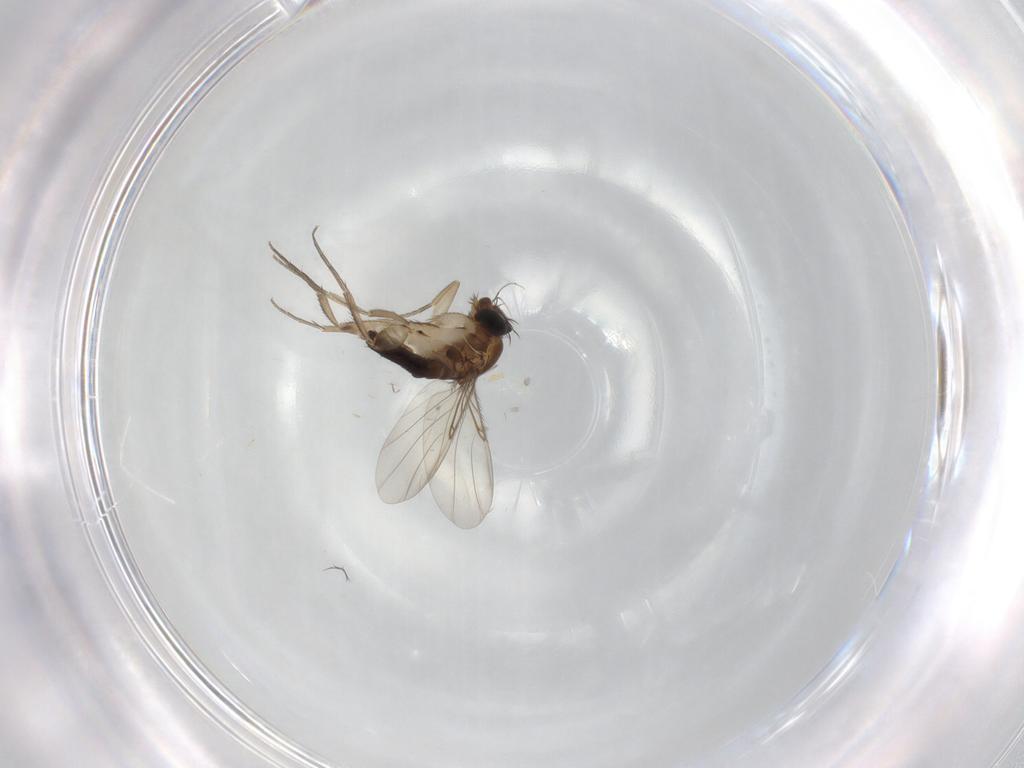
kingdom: Animalia
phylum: Arthropoda
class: Insecta
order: Diptera
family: Phoridae
